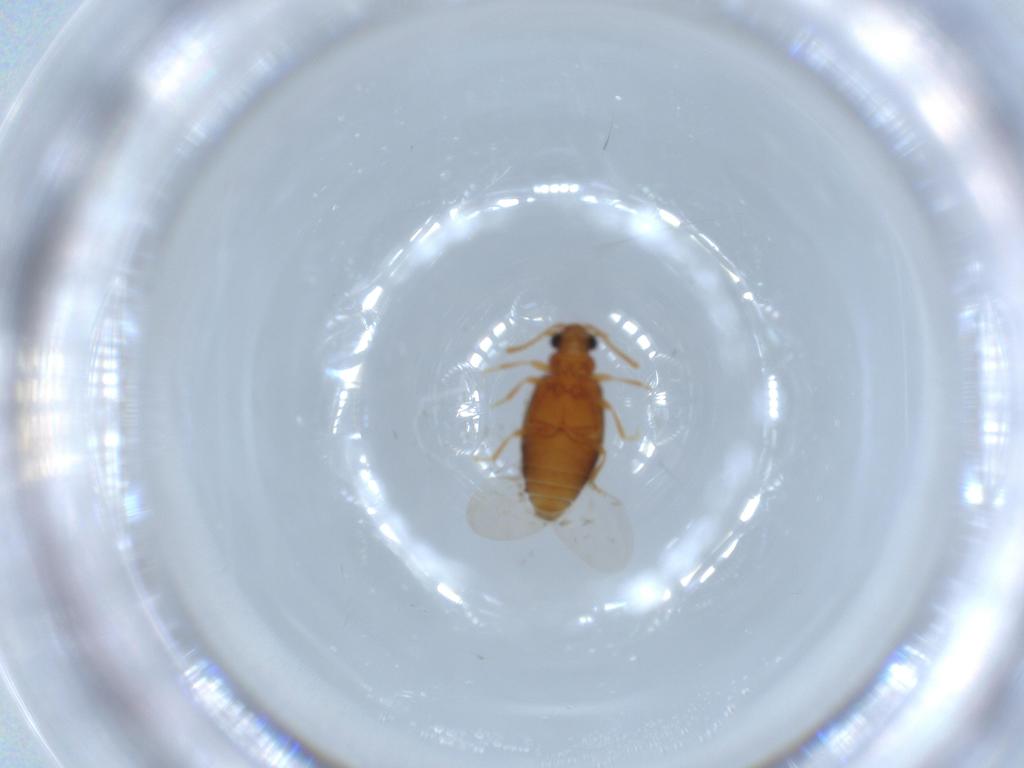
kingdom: Animalia
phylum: Arthropoda
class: Insecta
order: Coleoptera
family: Aderidae
